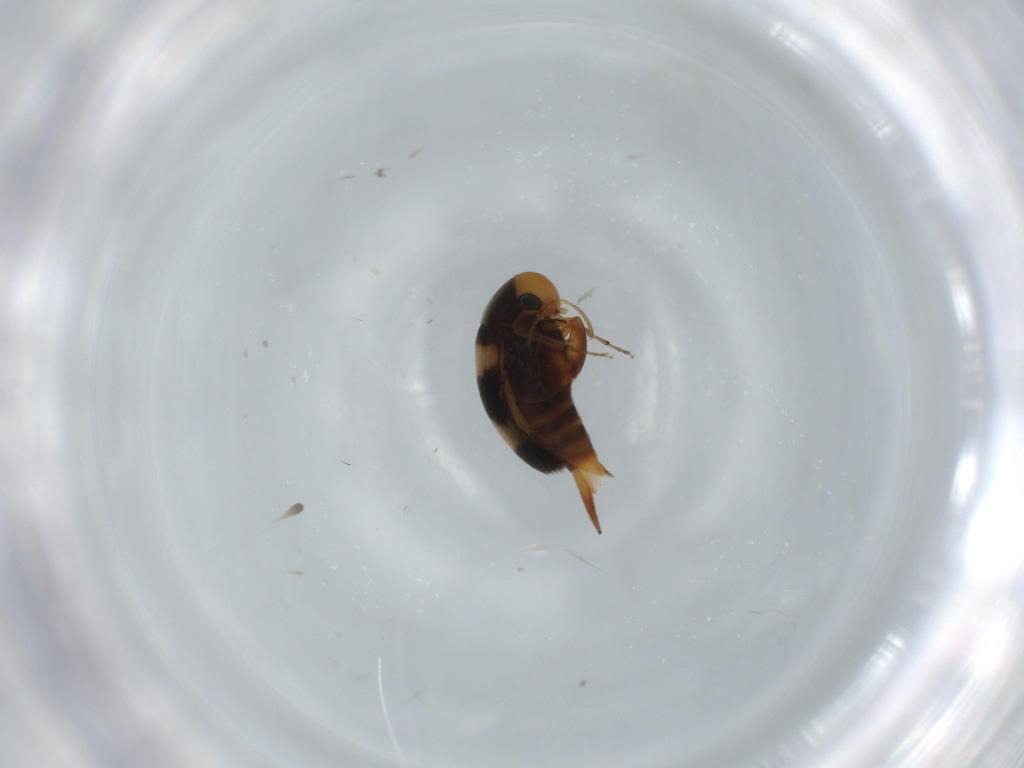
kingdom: Animalia
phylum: Arthropoda
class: Insecta
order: Coleoptera
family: Mordellidae
